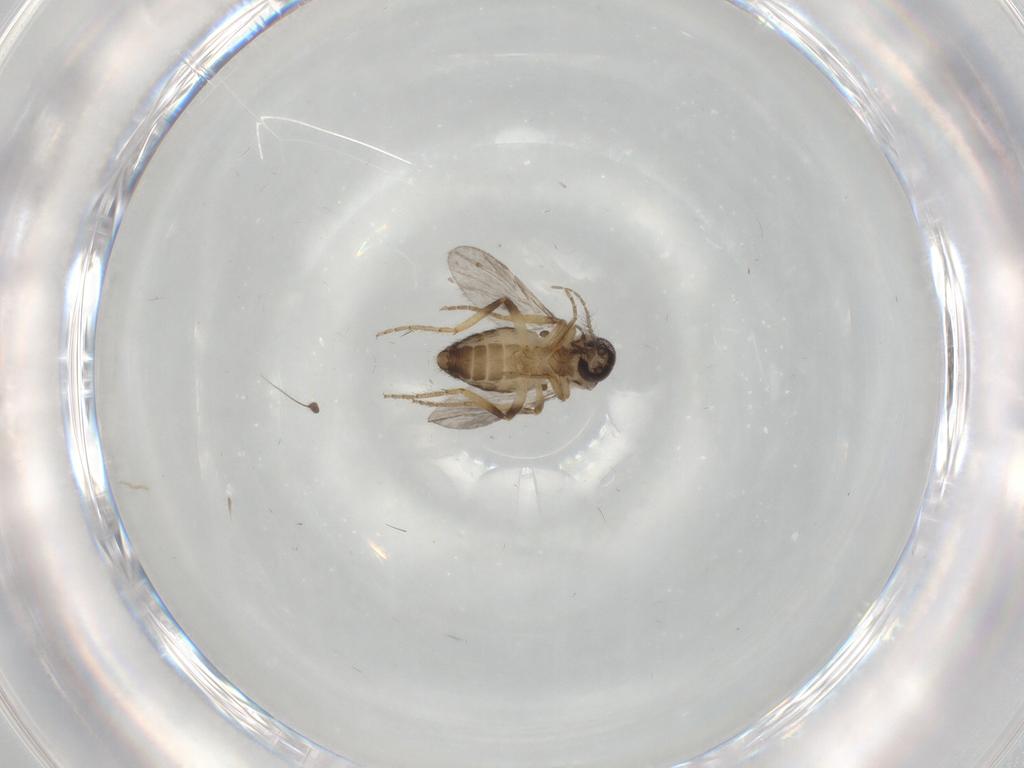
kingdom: Animalia
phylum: Arthropoda
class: Insecta
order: Diptera
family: Ceratopogonidae
